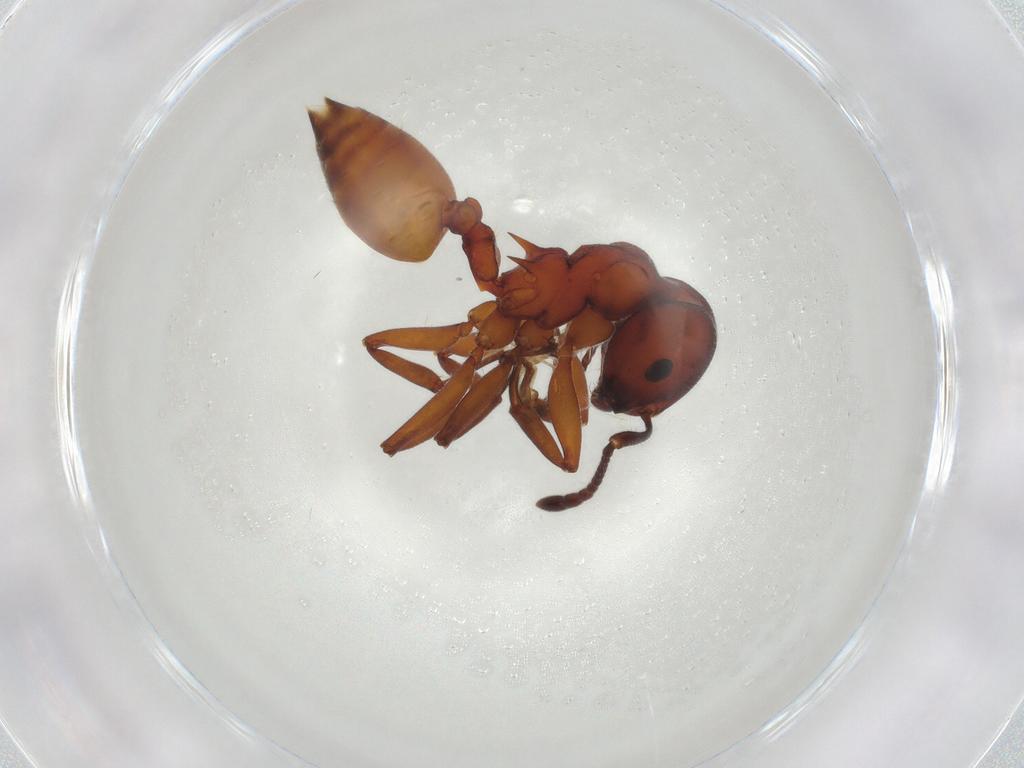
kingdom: Animalia
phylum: Arthropoda
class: Insecta
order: Hymenoptera
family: Formicidae
